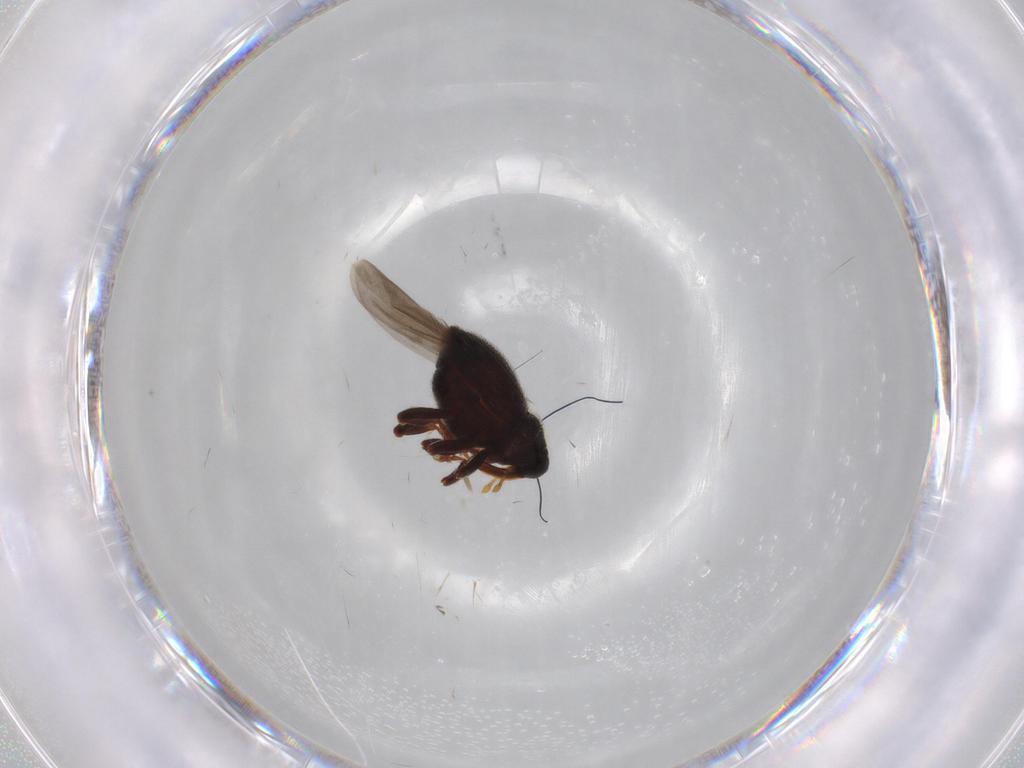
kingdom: Animalia
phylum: Arthropoda
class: Insecta
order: Coleoptera
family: Curculionidae
